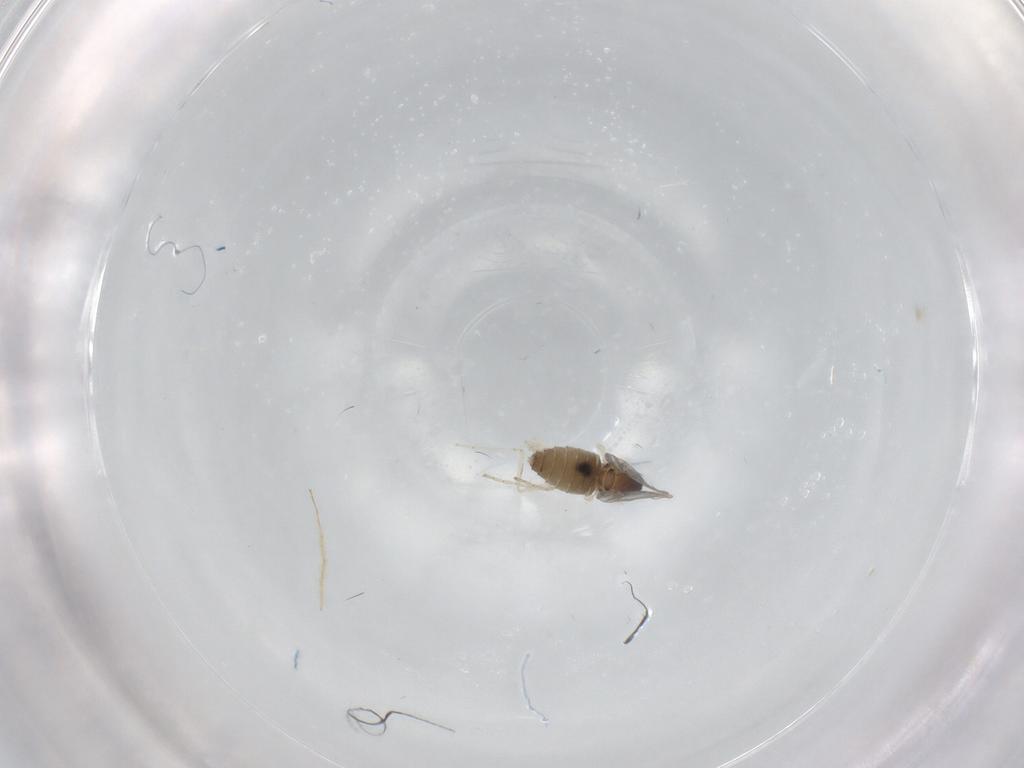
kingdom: Animalia
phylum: Arthropoda
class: Insecta
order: Diptera
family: Cecidomyiidae
